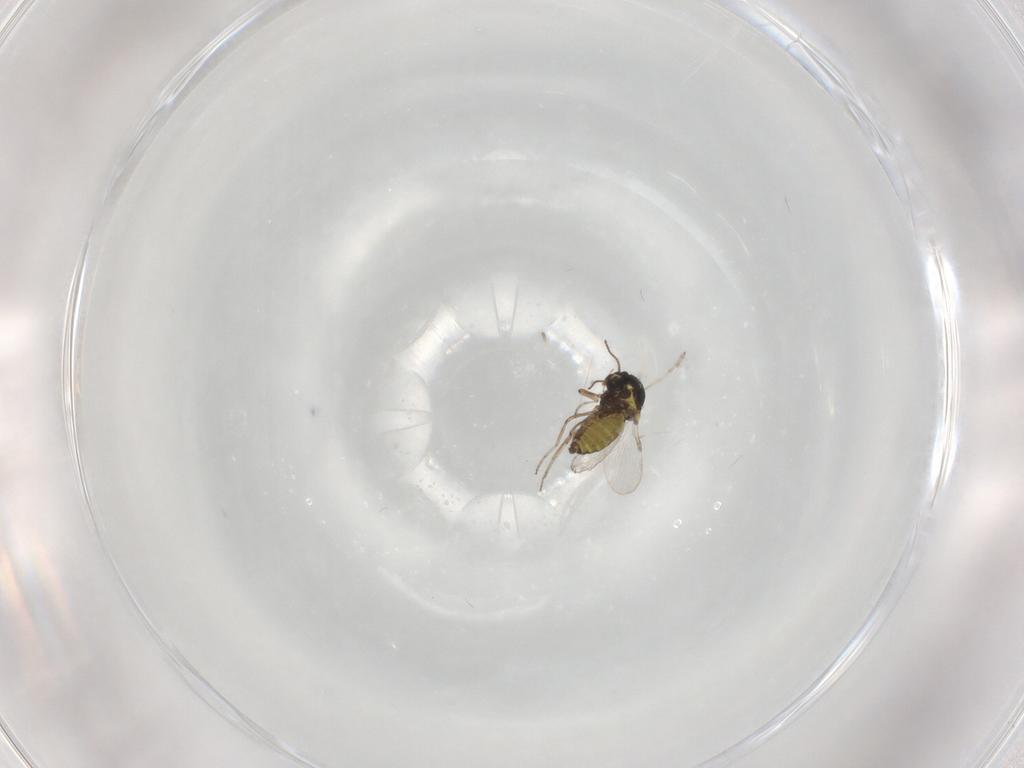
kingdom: Animalia
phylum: Arthropoda
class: Insecta
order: Diptera
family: Ceratopogonidae
